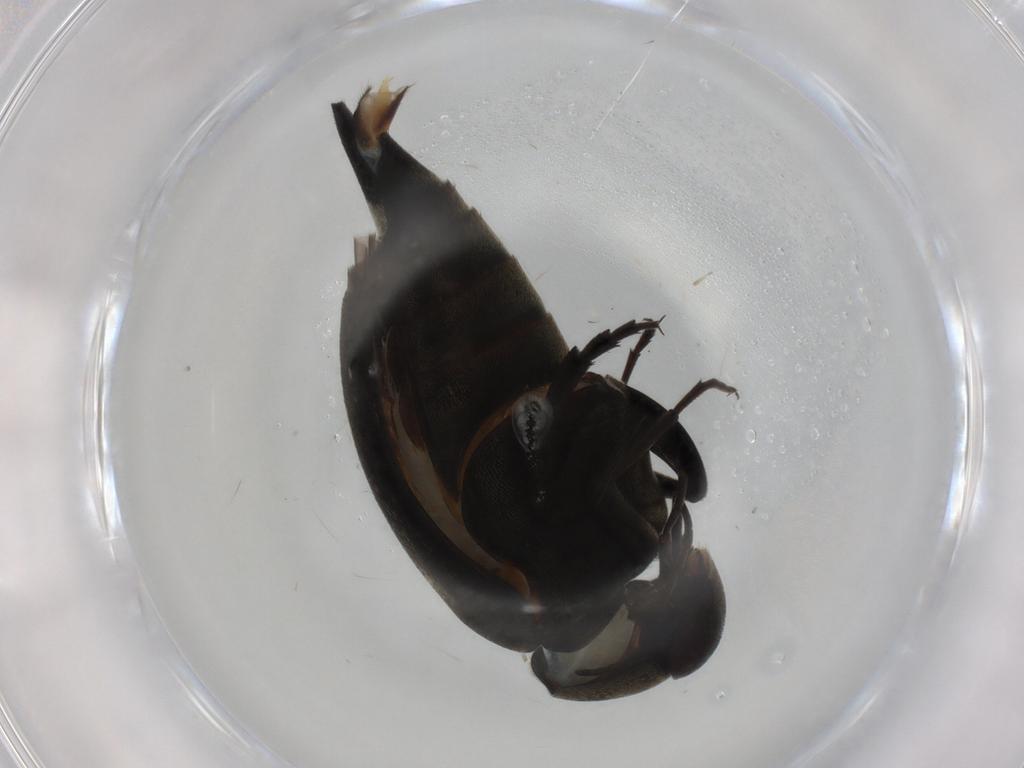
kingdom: Animalia
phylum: Arthropoda
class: Insecta
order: Coleoptera
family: Mordellidae
